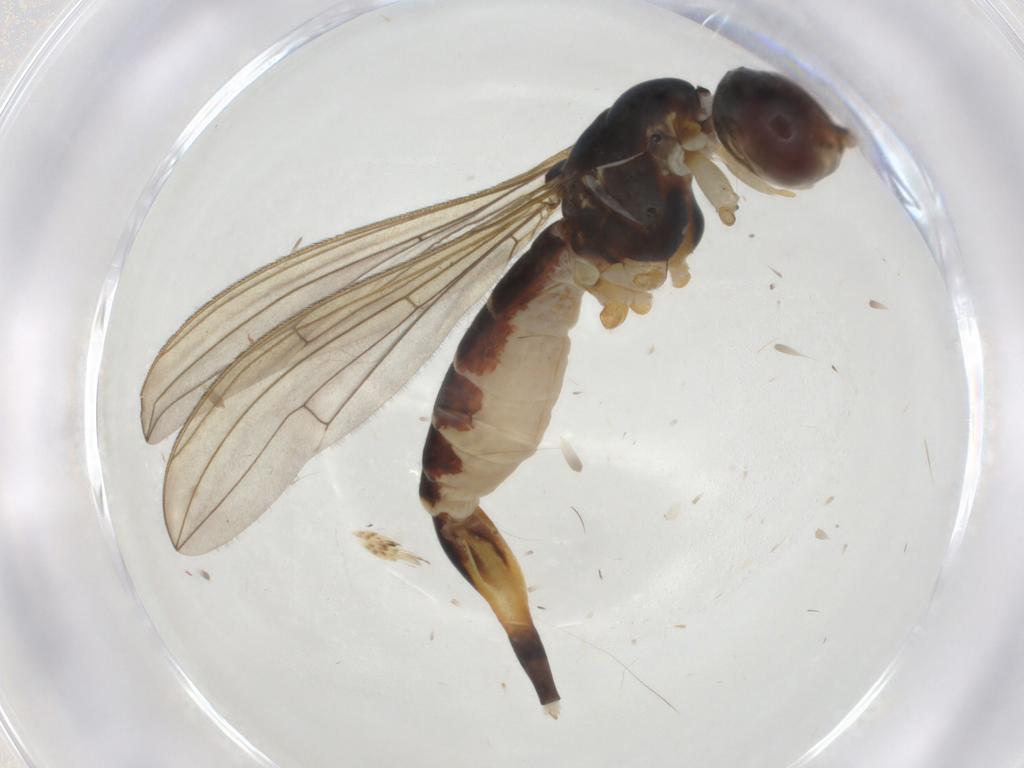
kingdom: Animalia
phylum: Arthropoda
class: Insecta
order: Diptera
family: Micropezidae
